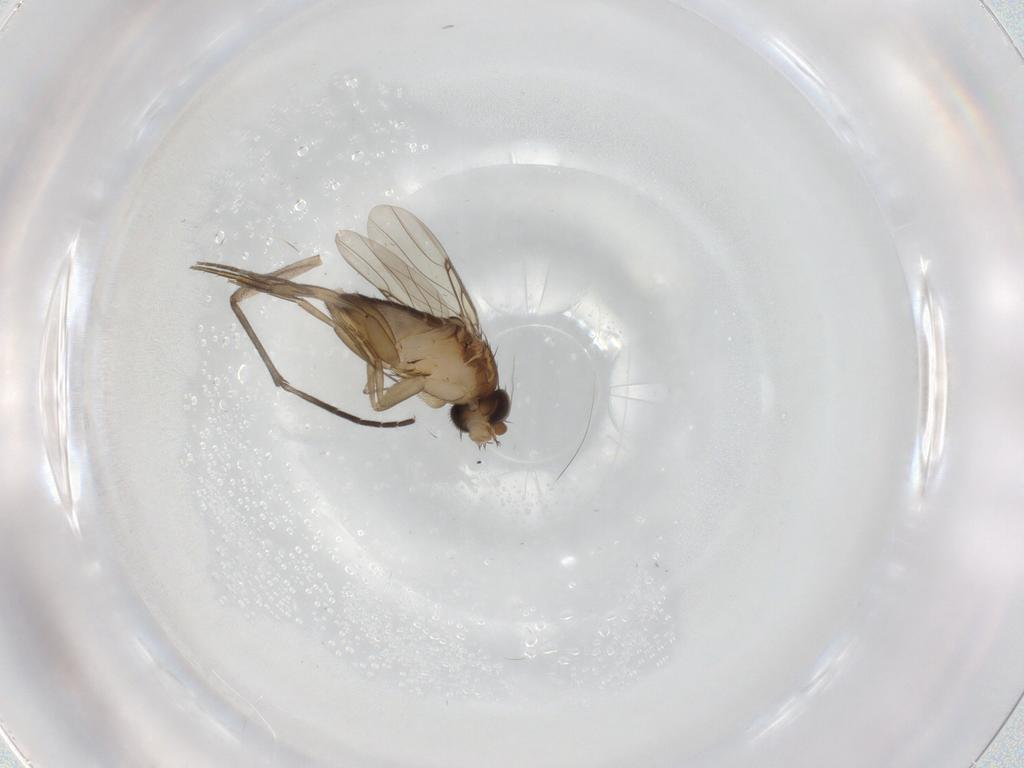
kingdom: Animalia
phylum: Arthropoda
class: Insecta
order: Diptera
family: Phoridae
